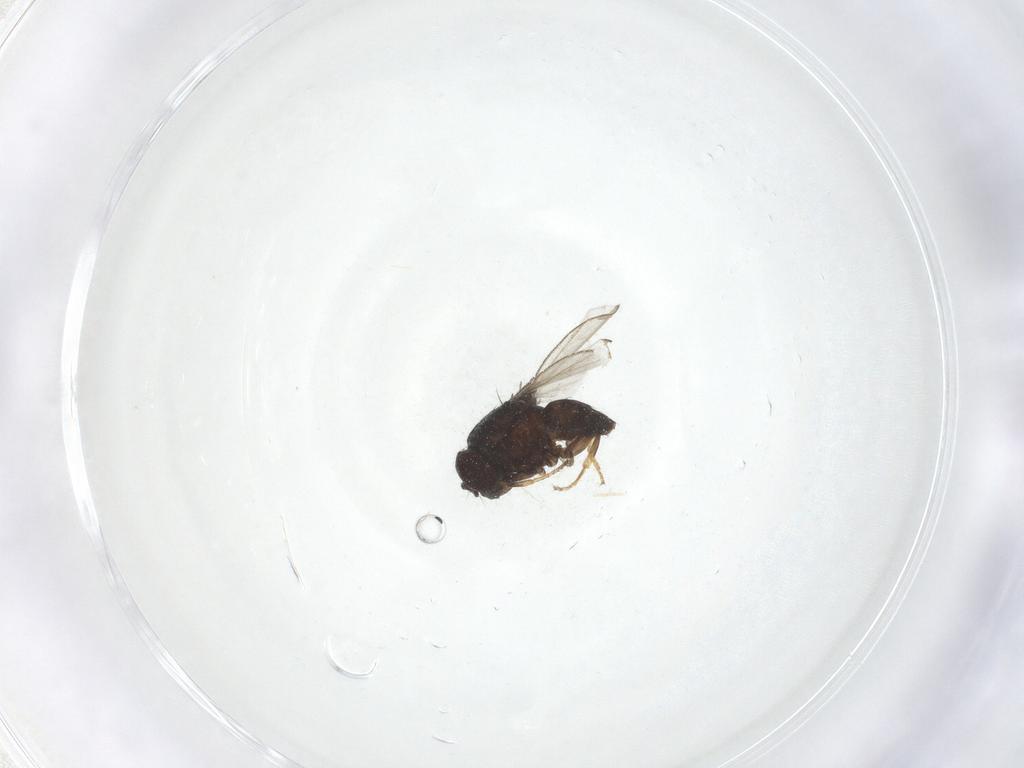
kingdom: Animalia
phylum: Arthropoda
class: Insecta
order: Diptera
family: Ephydridae
